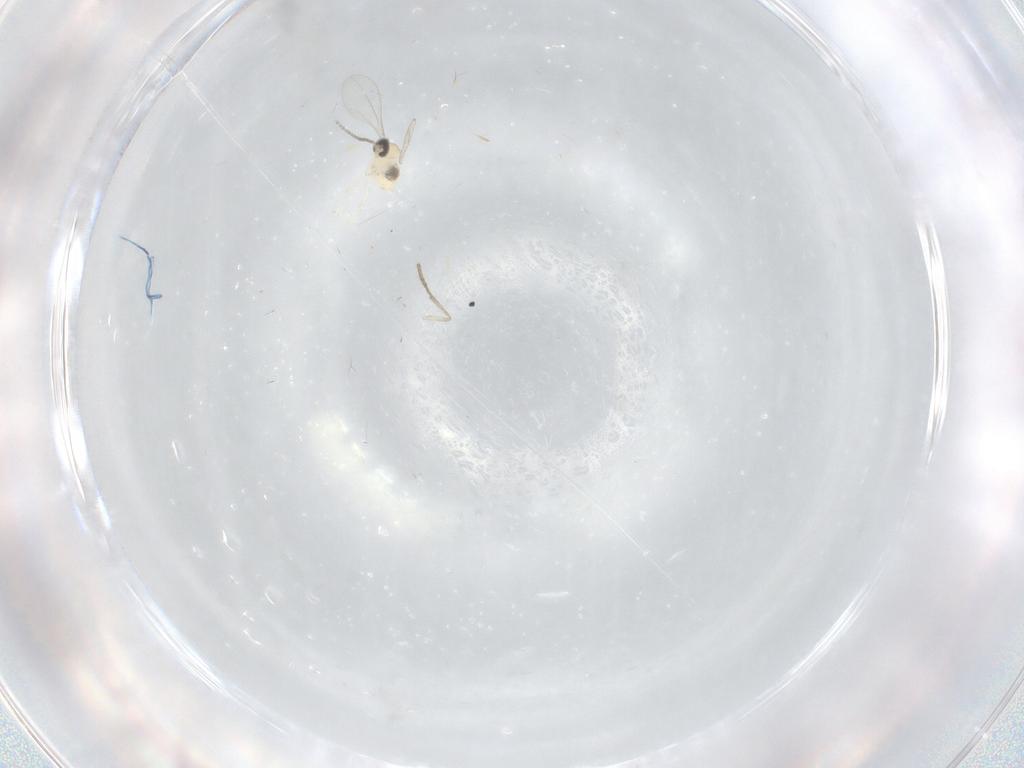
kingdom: Animalia
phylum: Arthropoda
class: Insecta
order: Diptera
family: Cecidomyiidae
